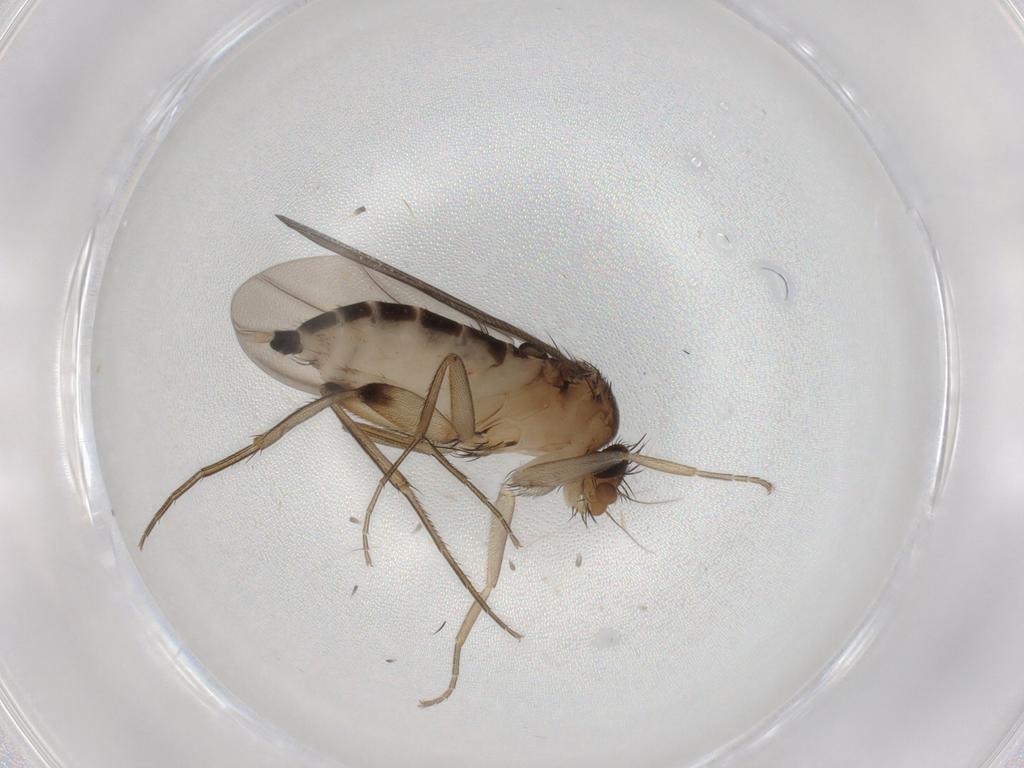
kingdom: Animalia
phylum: Arthropoda
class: Insecta
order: Diptera
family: Phoridae
